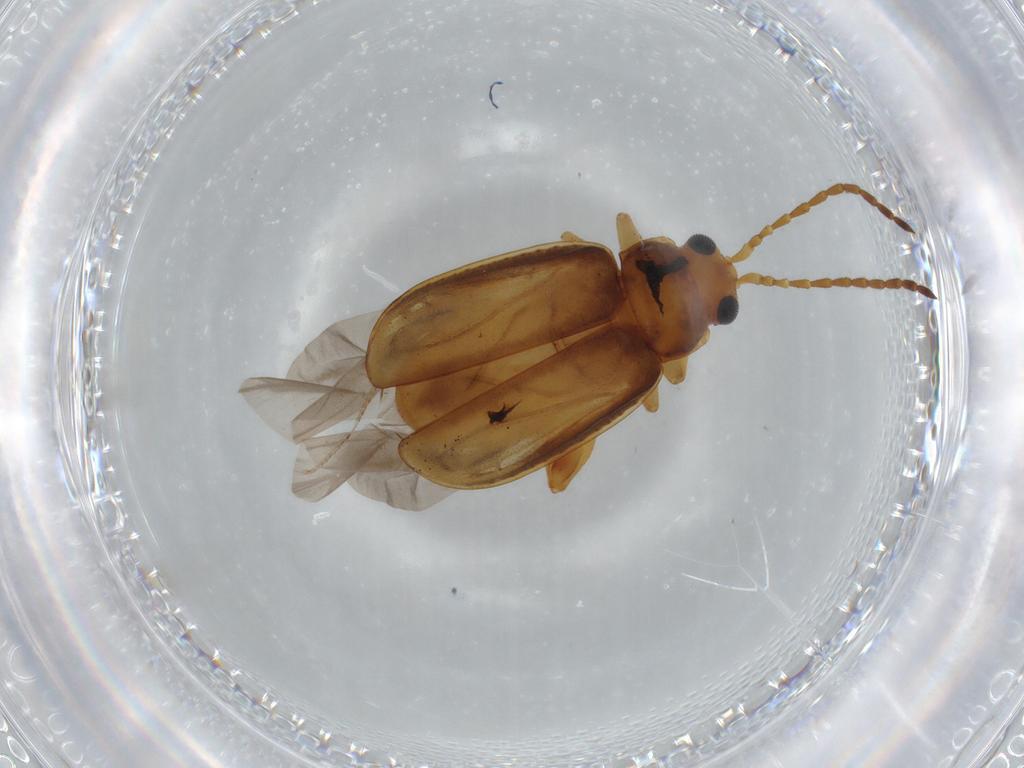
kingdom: Animalia
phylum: Arthropoda
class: Insecta
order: Coleoptera
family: Chrysomelidae
